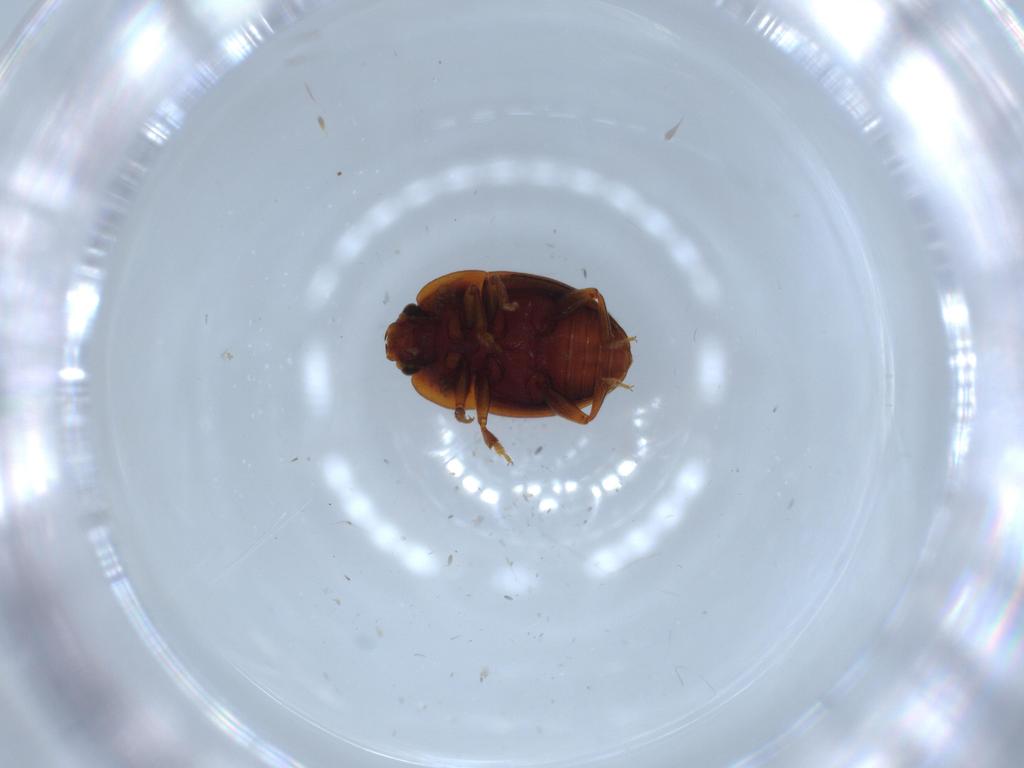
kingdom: Animalia
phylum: Arthropoda
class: Insecta
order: Coleoptera
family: Nitidulidae
